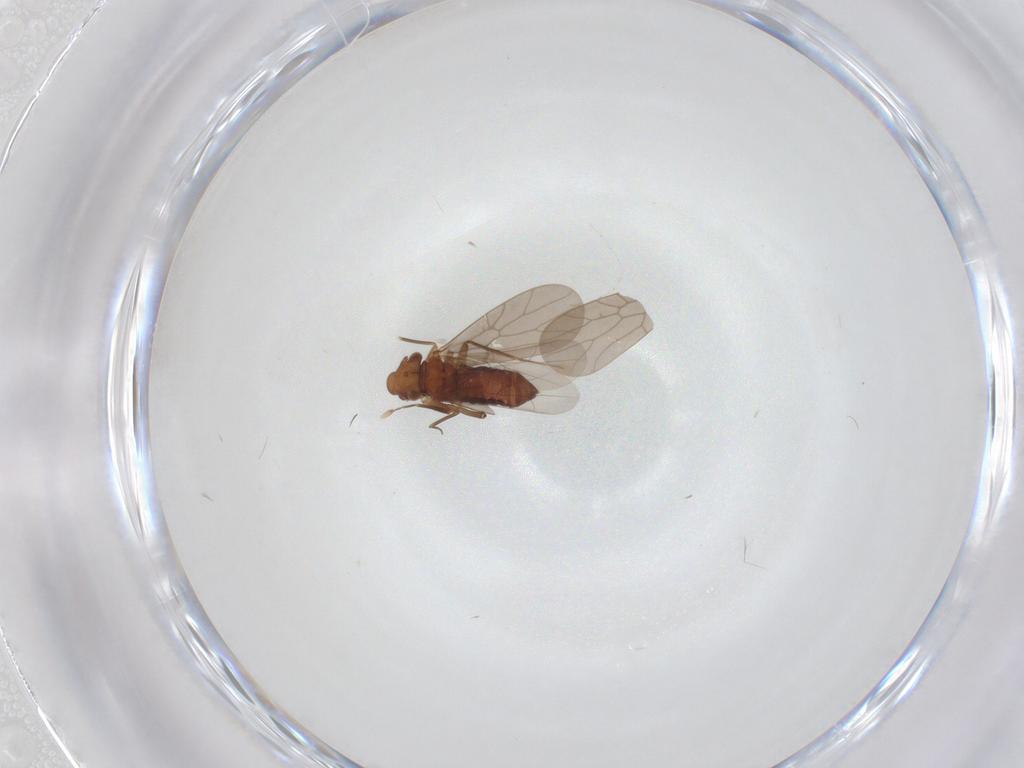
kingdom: Animalia
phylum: Arthropoda
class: Insecta
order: Psocodea
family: Lepidopsocidae
